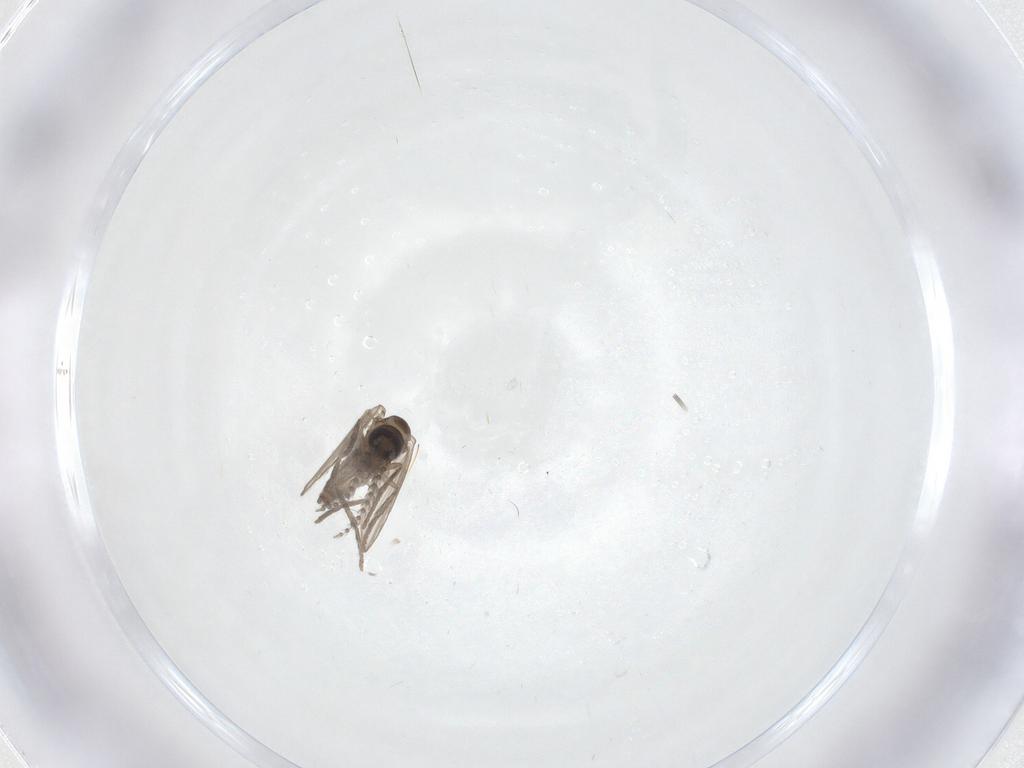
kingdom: Animalia
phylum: Arthropoda
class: Insecta
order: Diptera
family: Psychodidae
